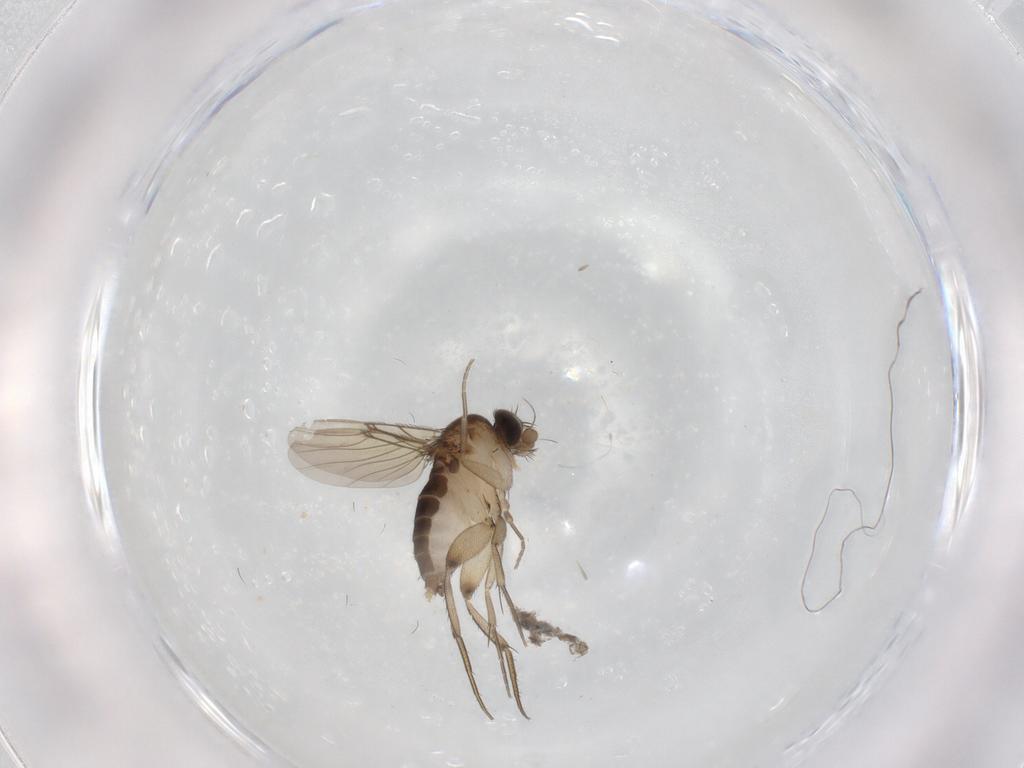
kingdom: Animalia
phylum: Arthropoda
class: Insecta
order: Diptera
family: Phoridae
